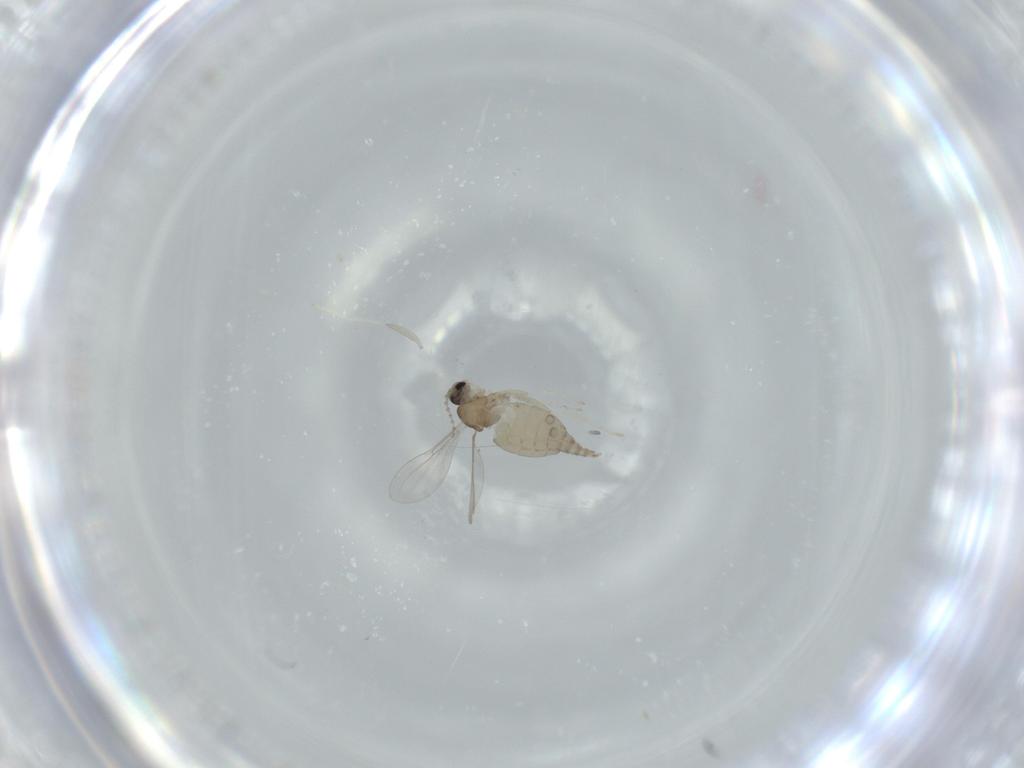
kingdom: Animalia
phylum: Arthropoda
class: Insecta
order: Diptera
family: Cecidomyiidae
